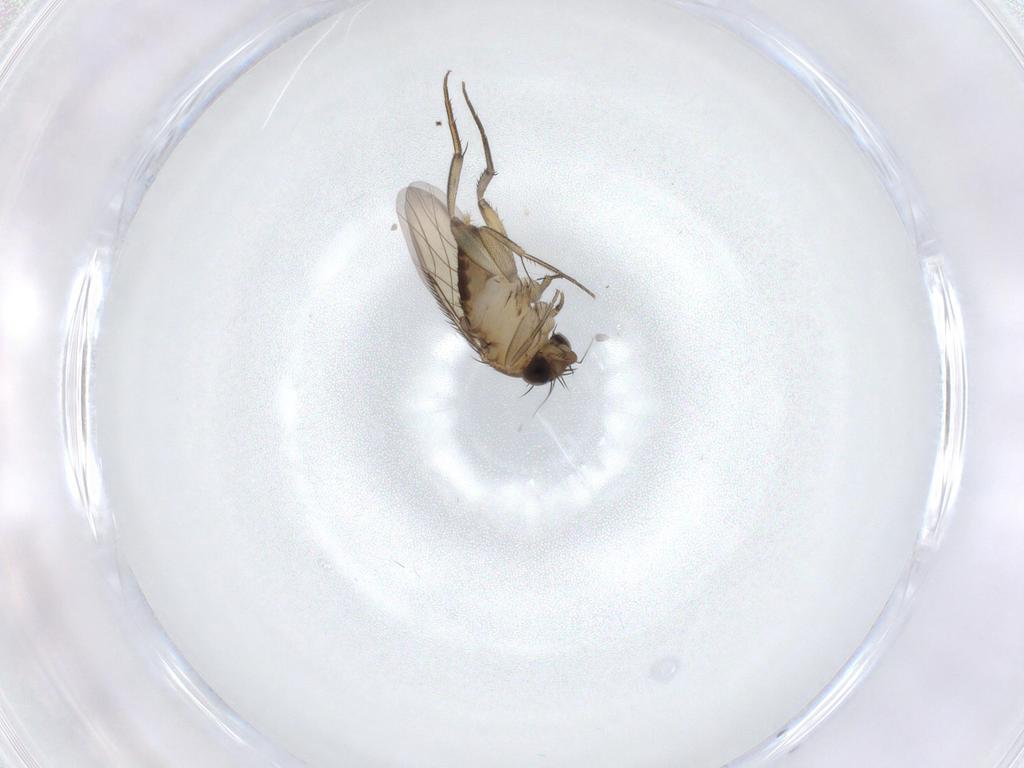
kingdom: Animalia
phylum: Arthropoda
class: Insecta
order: Diptera
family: Phoridae
